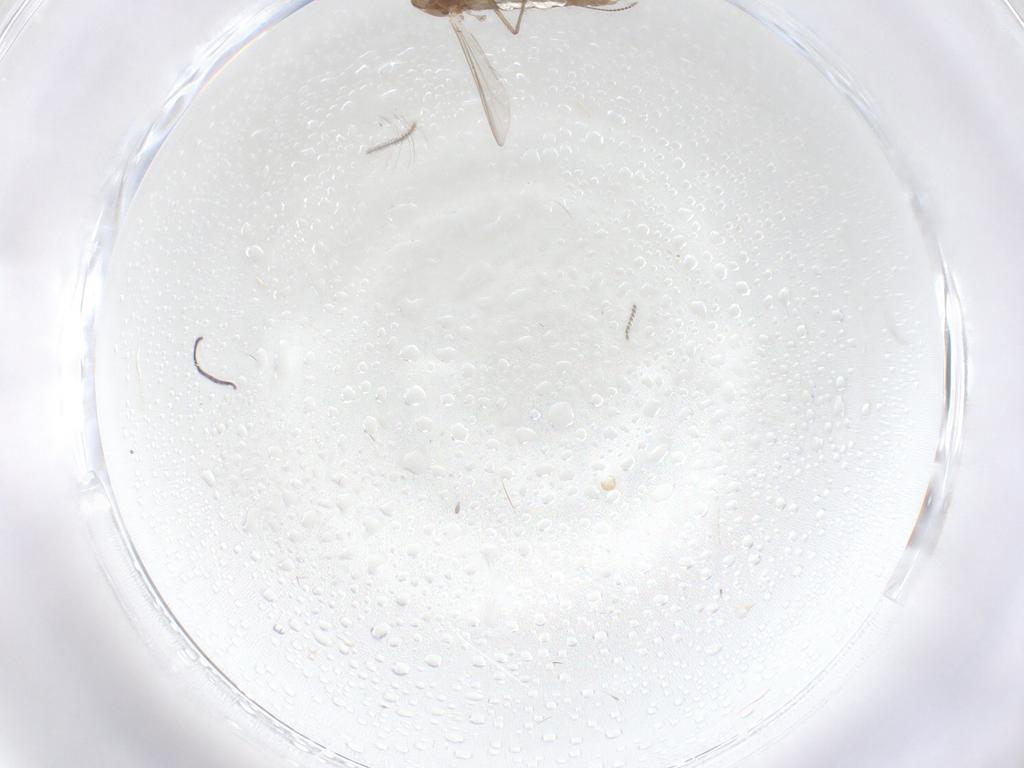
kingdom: Animalia
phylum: Arthropoda
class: Insecta
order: Diptera
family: Chironomidae
